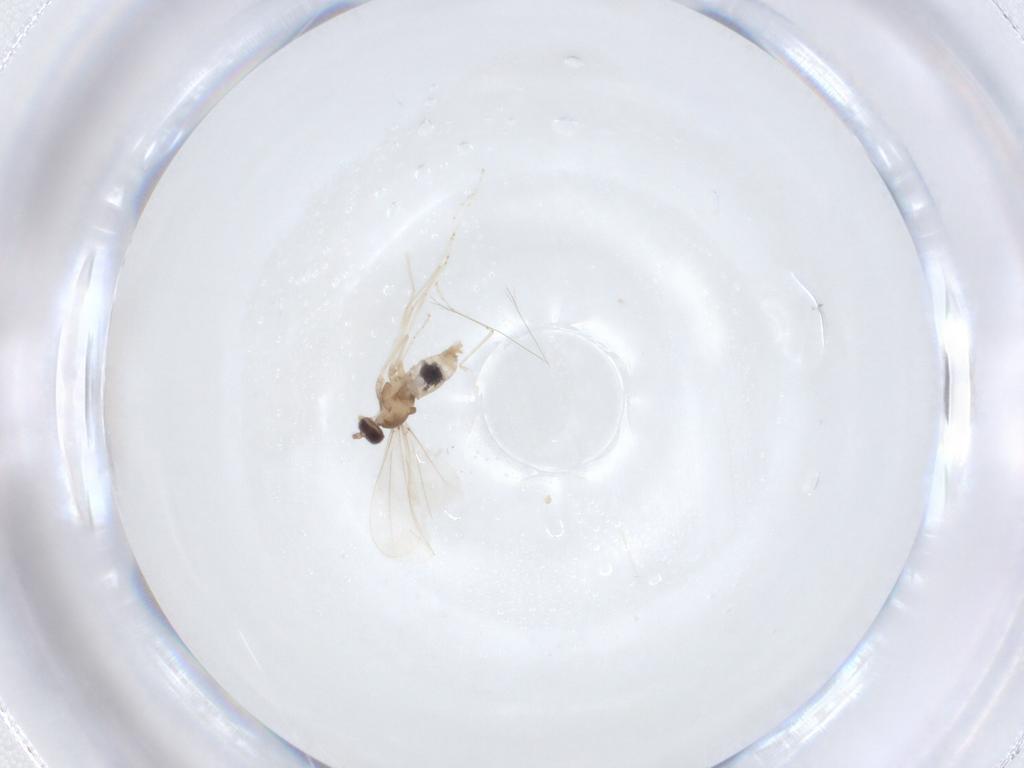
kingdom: Animalia
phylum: Arthropoda
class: Insecta
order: Diptera
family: Cecidomyiidae
